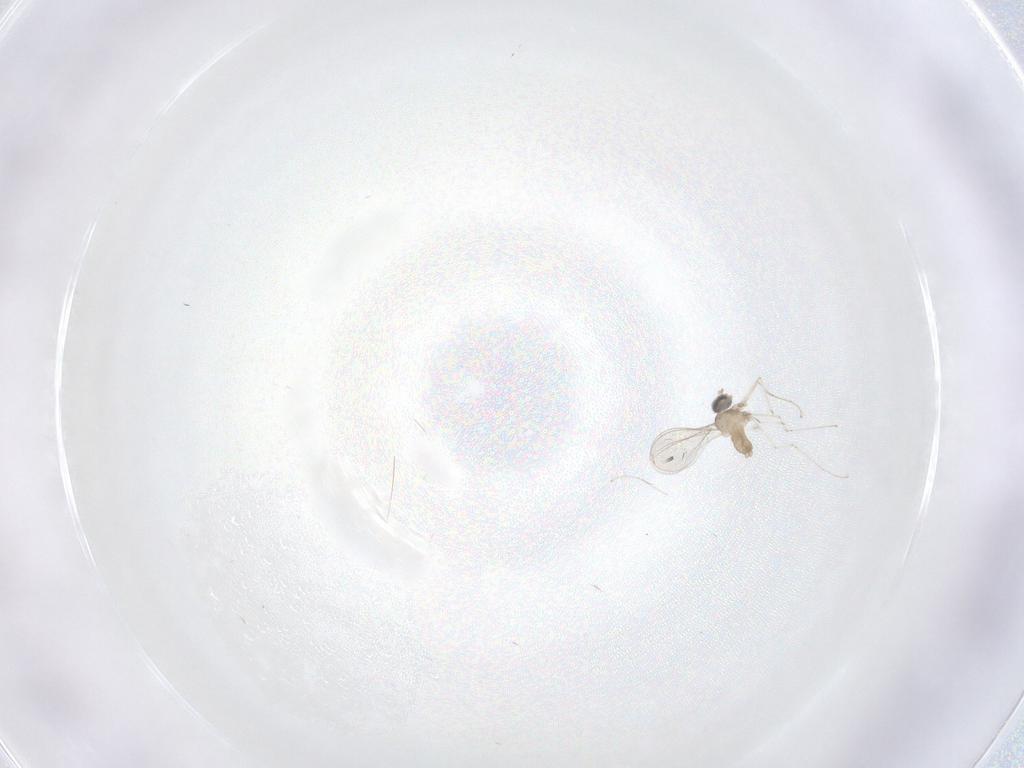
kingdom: Animalia
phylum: Arthropoda
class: Insecta
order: Diptera
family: Cecidomyiidae
